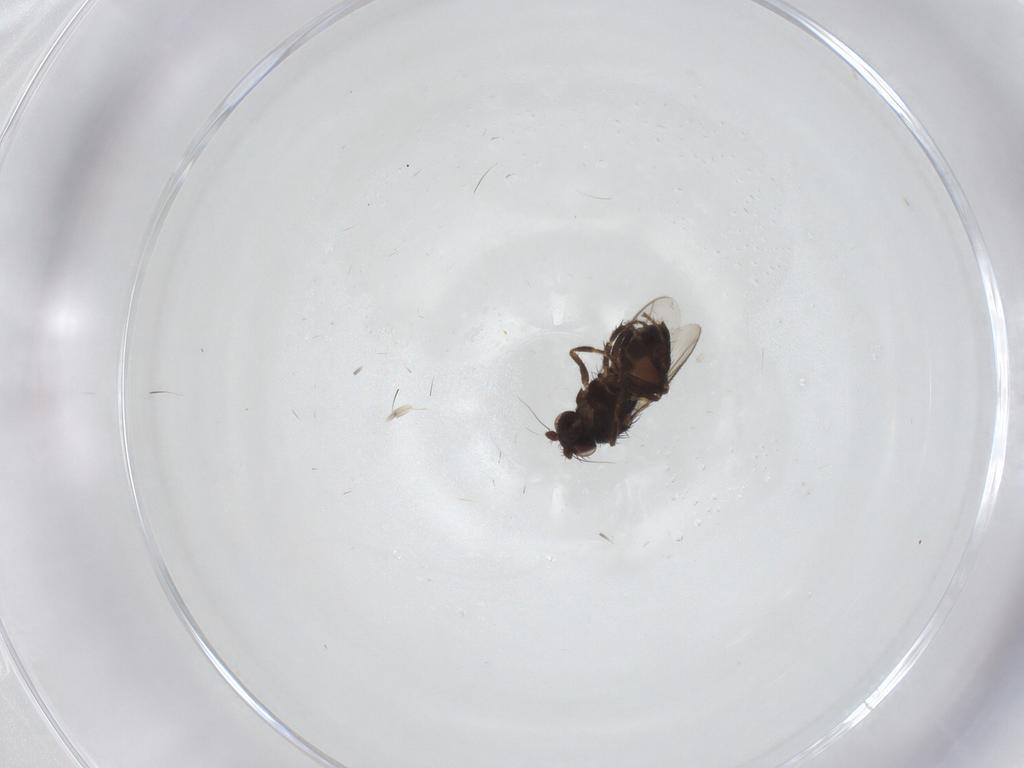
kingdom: Animalia
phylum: Arthropoda
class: Insecta
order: Diptera
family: Sphaeroceridae
